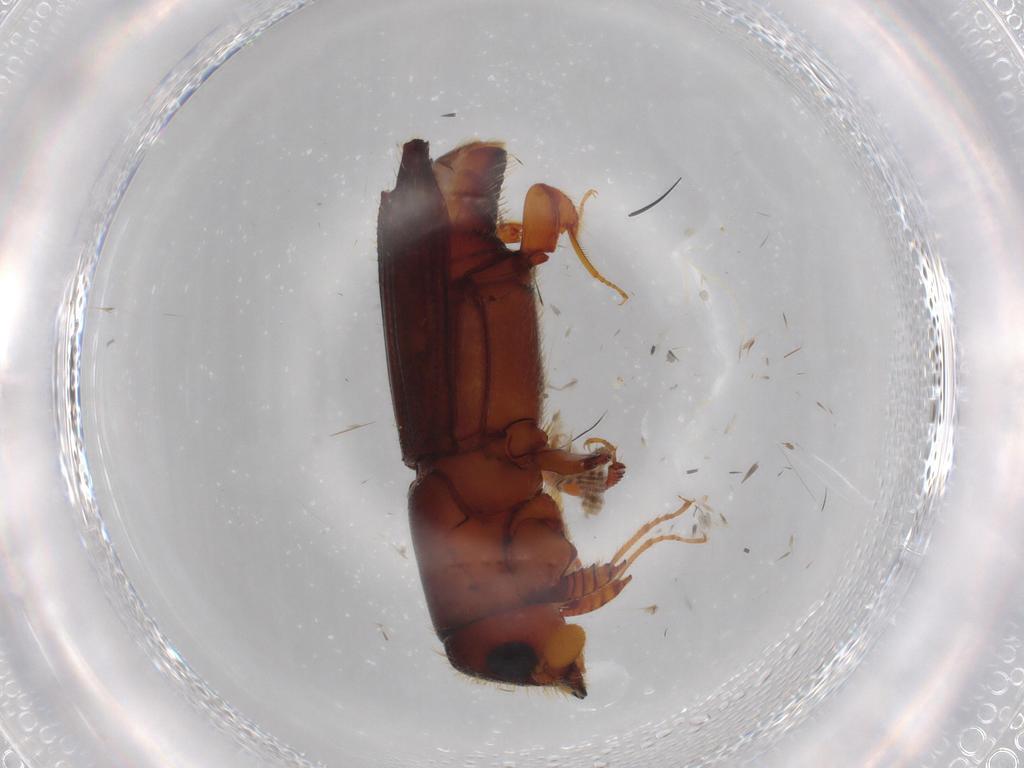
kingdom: Animalia
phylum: Arthropoda
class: Insecta
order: Coleoptera
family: Curculionidae
